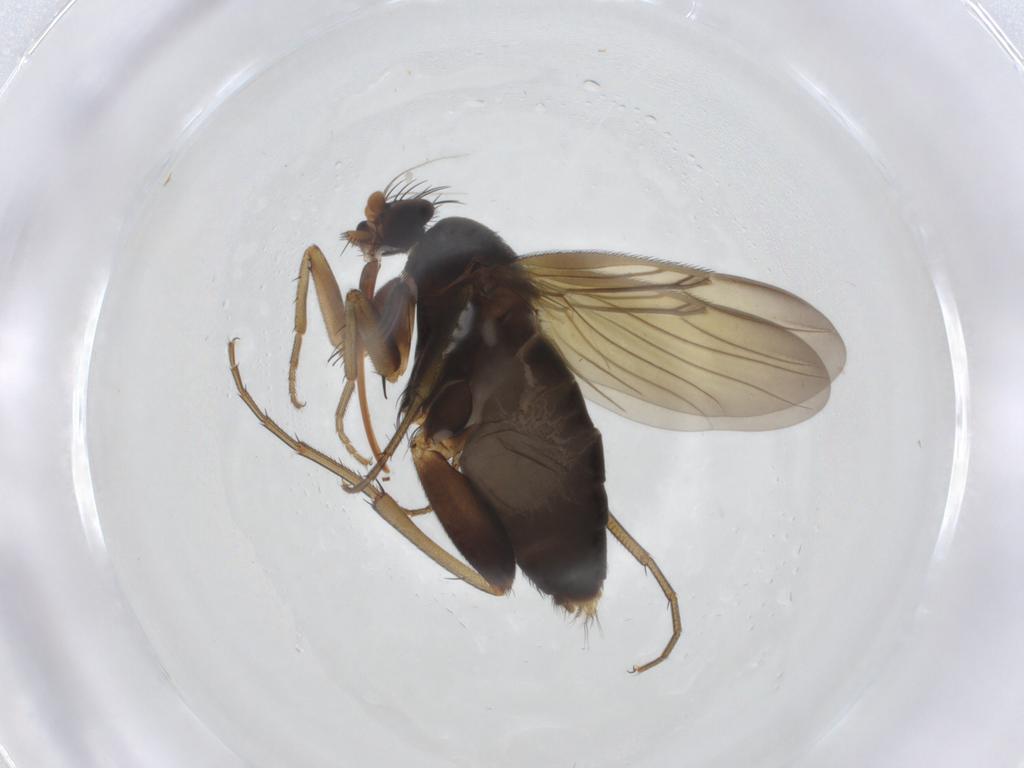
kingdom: Animalia
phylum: Arthropoda
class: Insecta
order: Diptera
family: Phoridae
